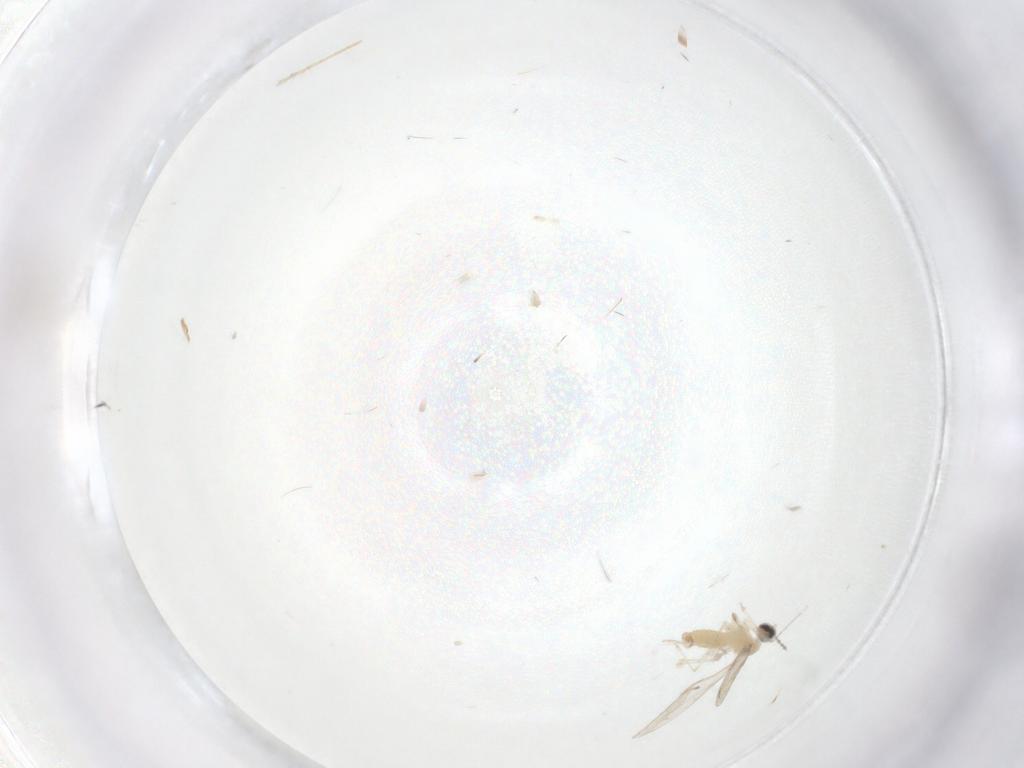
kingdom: Animalia
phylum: Arthropoda
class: Insecta
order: Diptera
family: Cecidomyiidae
